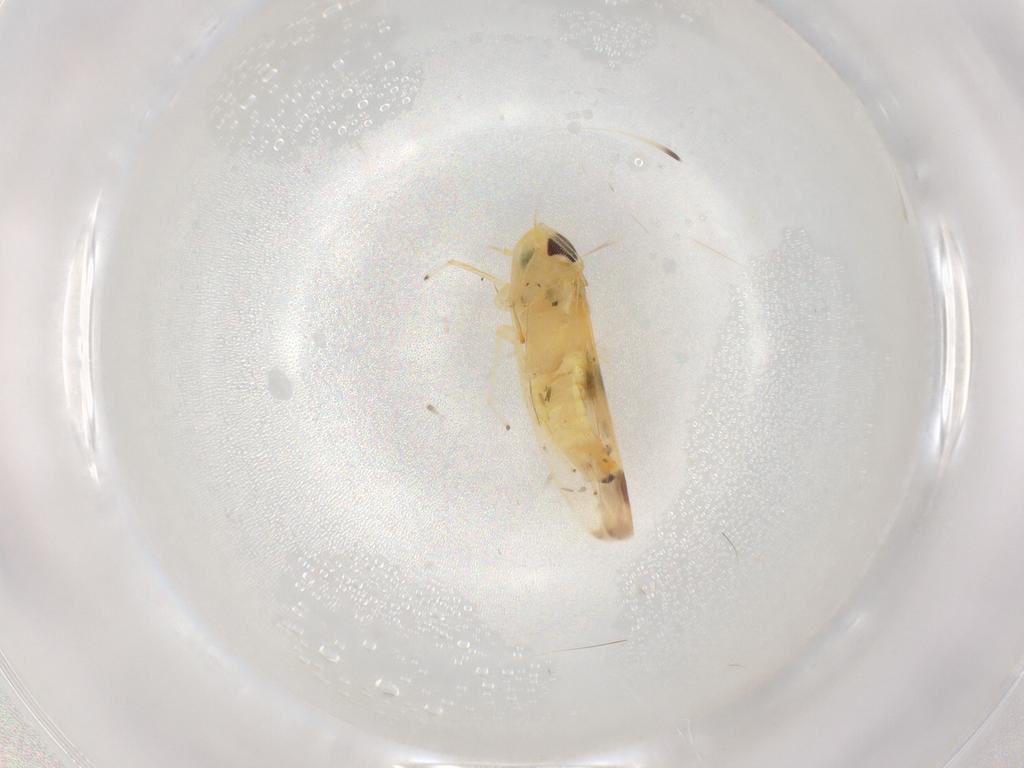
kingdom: Animalia
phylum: Arthropoda
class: Insecta
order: Hemiptera
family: Cicadellidae
